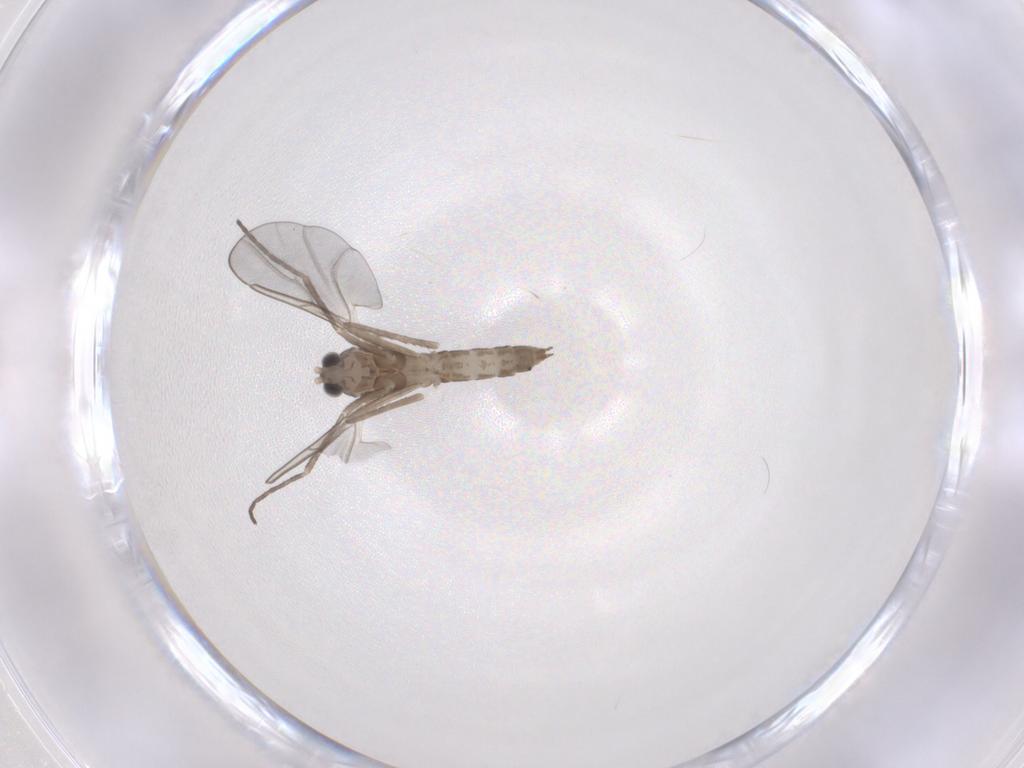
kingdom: Animalia
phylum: Arthropoda
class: Insecta
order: Diptera
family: Cecidomyiidae
